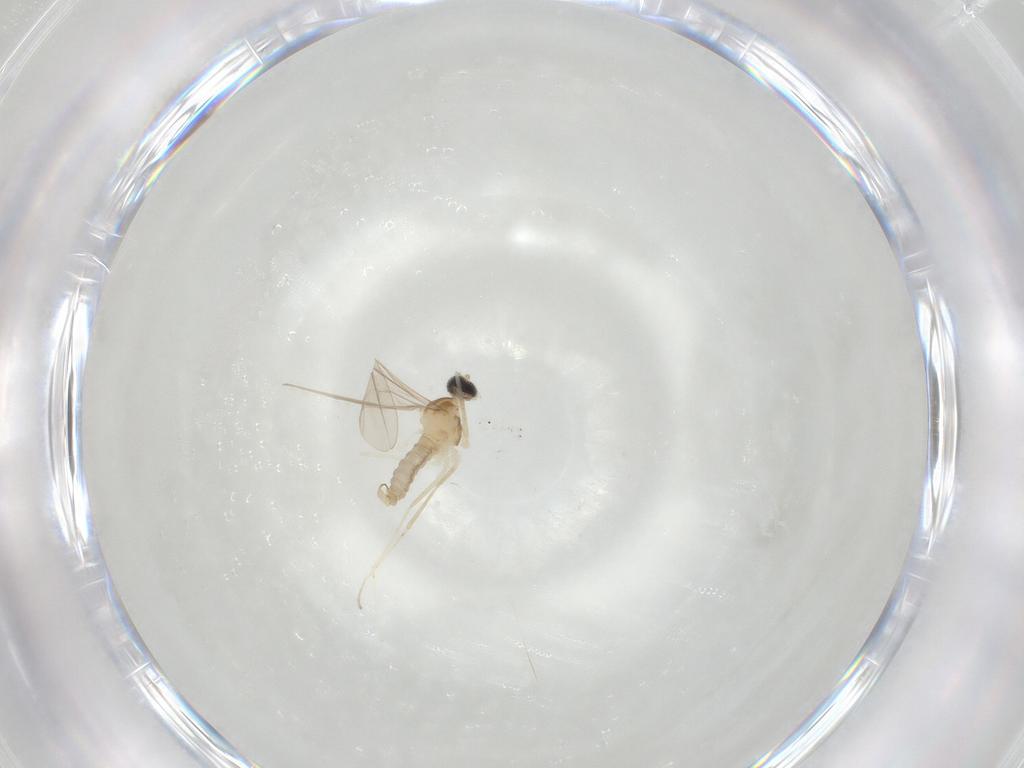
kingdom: Animalia
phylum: Arthropoda
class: Insecta
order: Diptera
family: Cecidomyiidae
